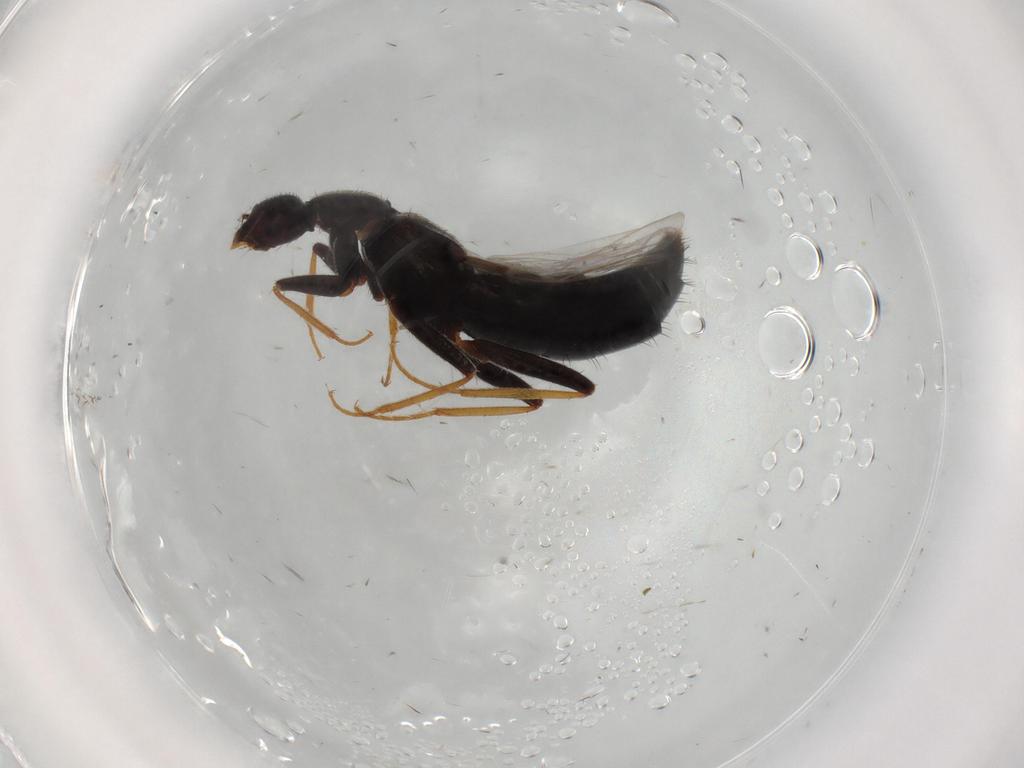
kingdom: Animalia
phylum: Arthropoda
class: Insecta
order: Coleoptera
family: Staphylinidae
